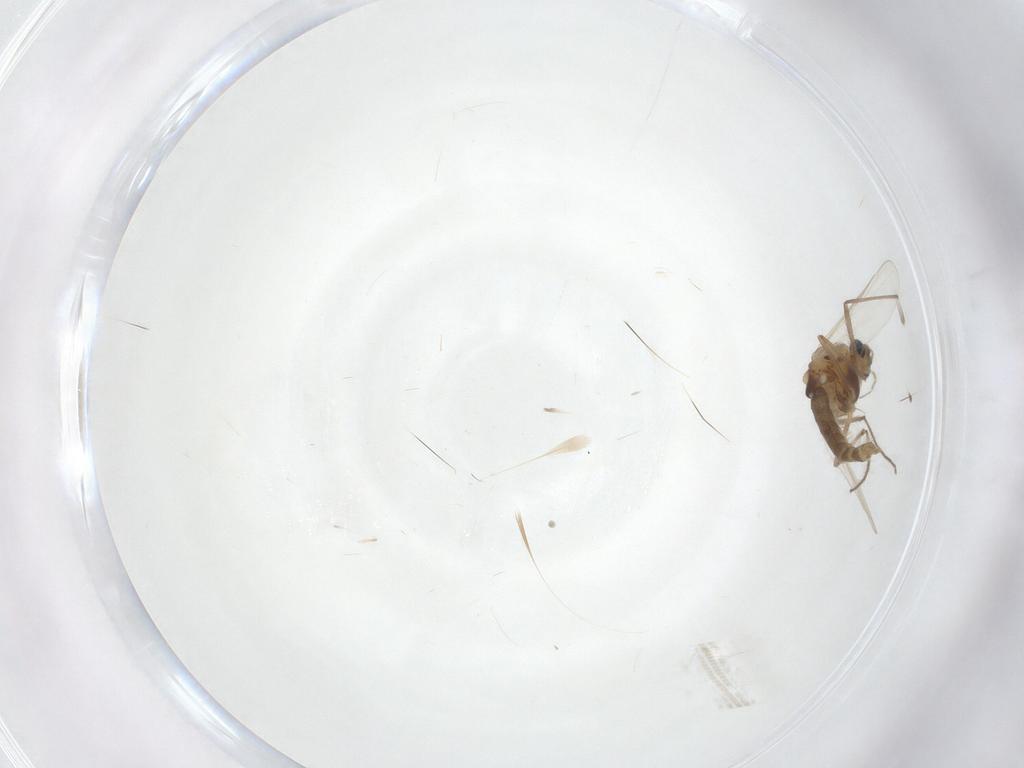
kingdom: Animalia
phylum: Arthropoda
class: Insecta
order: Diptera
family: Chironomidae
